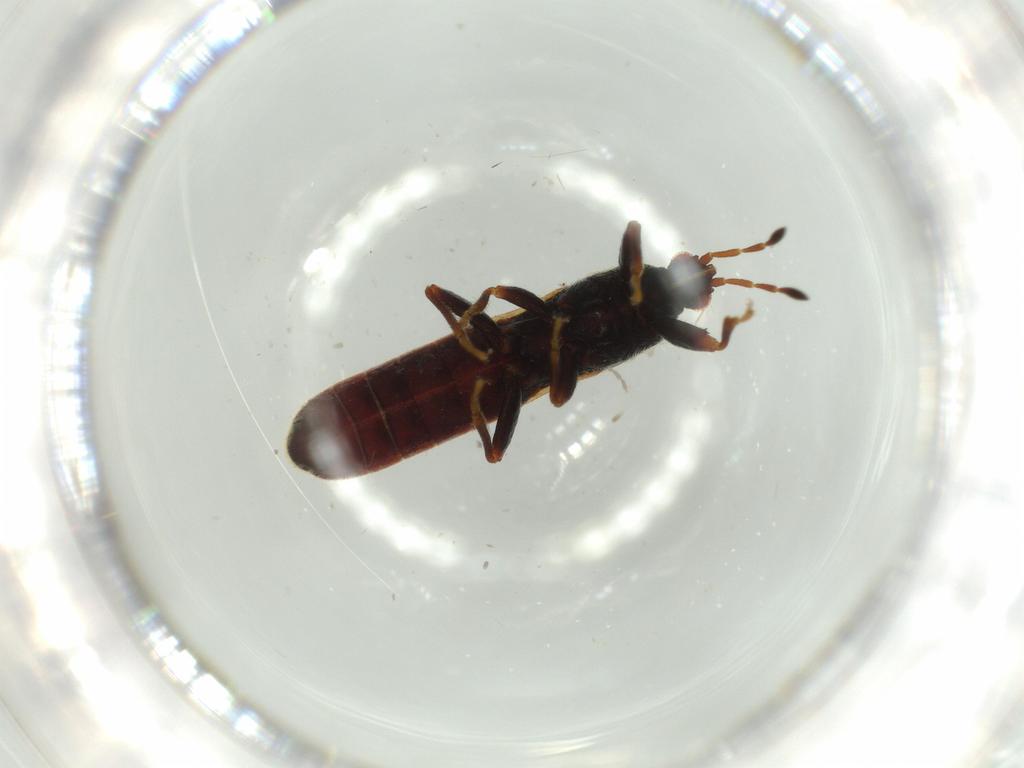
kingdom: Animalia
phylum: Arthropoda
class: Insecta
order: Hemiptera
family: Blissidae
